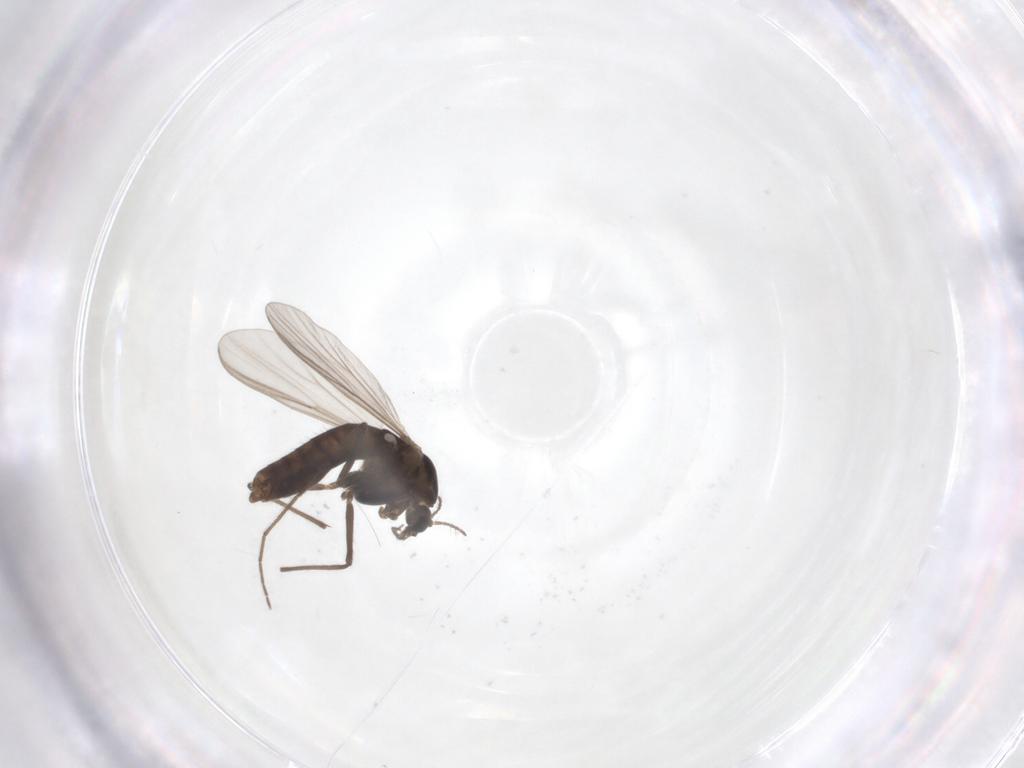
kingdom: Animalia
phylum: Arthropoda
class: Insecta
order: Diptera
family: Chironomidae
